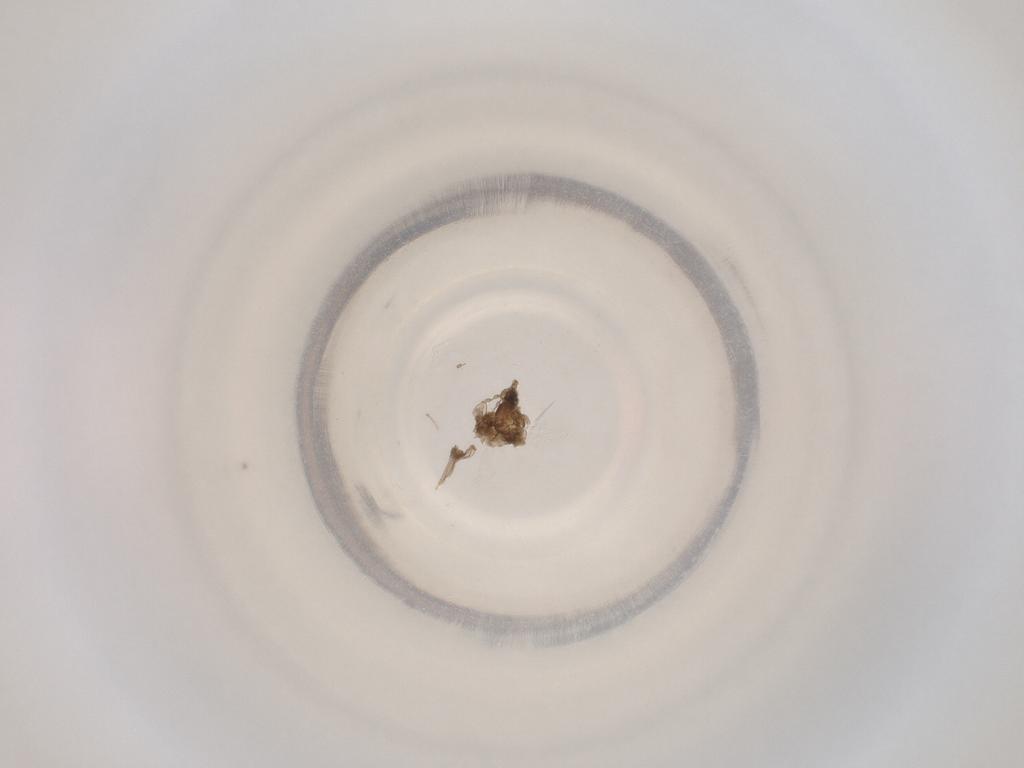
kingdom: Animalia
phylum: Arthropoda
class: Insecta
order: Diptera
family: Cecidomyiidae
